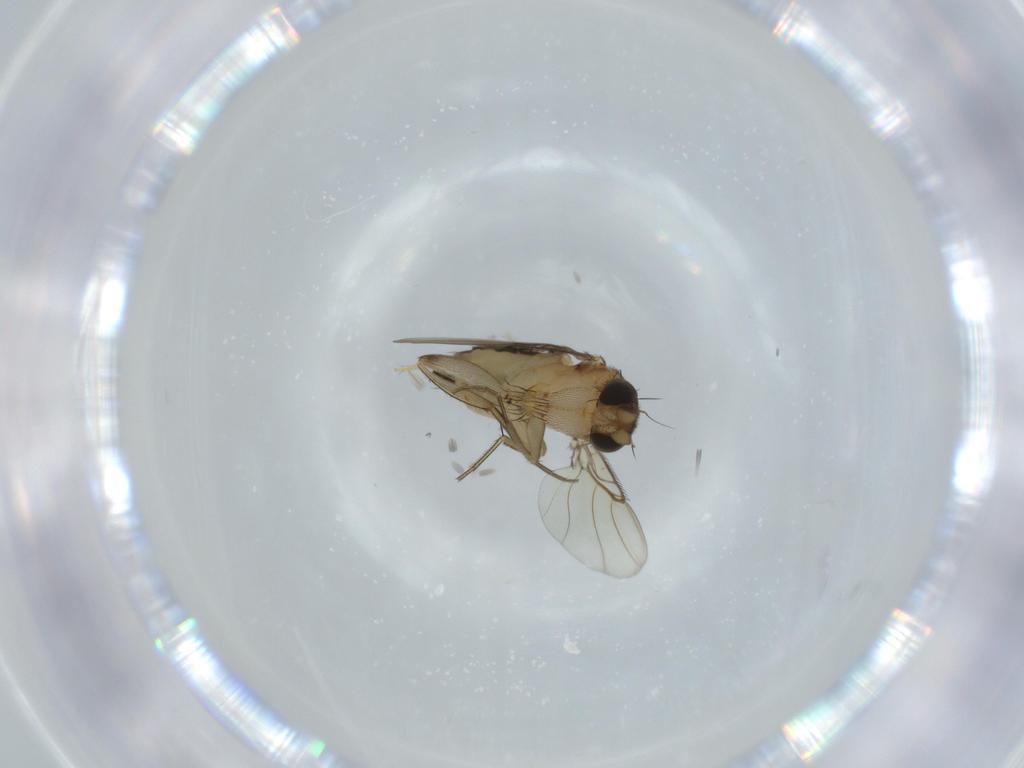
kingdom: Animalia
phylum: Arthropoda
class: Insecta
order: Diptera
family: Phoridae
